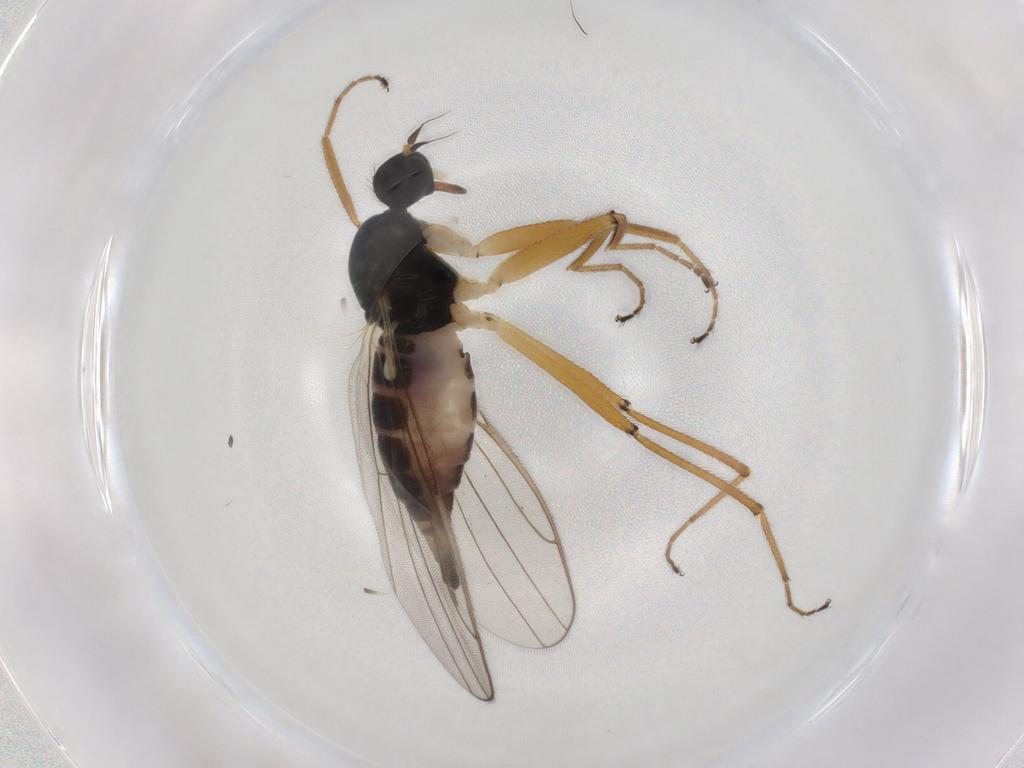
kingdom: Animalia
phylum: Arthropoda
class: Insecta
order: Diptera
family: Hybotidae
